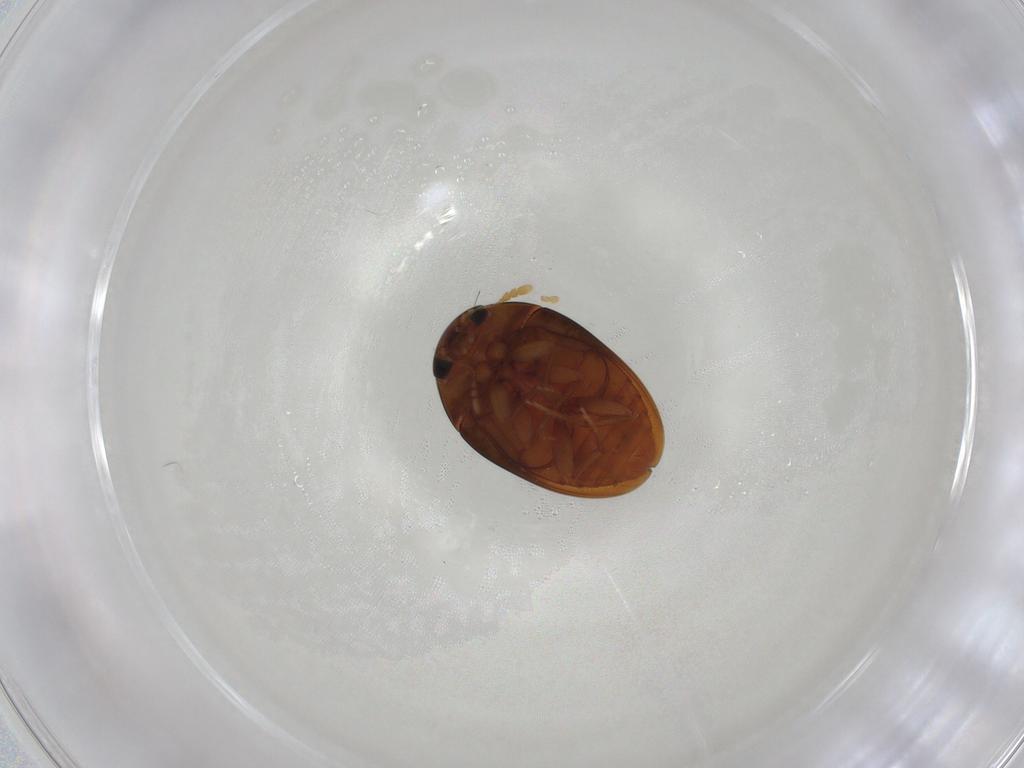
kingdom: Animalia
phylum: Arthropoda
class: Insecta
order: Coleoptera
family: Phalacridae
